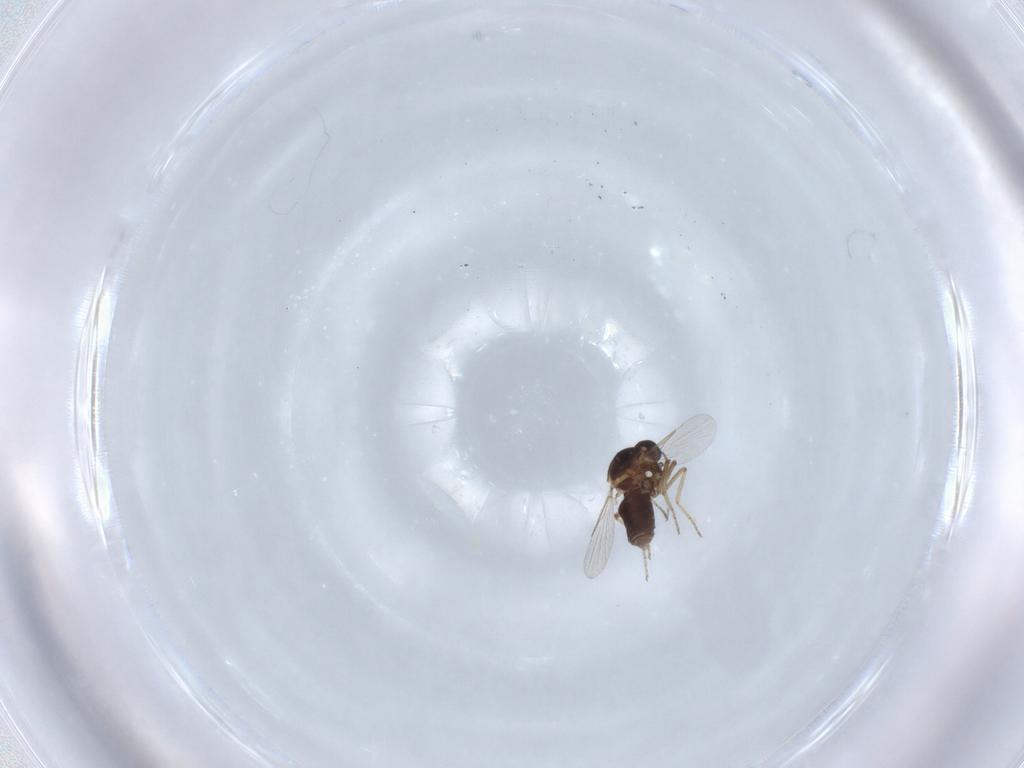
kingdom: Animalia
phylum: Arthropoda
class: Insecta
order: Diptera
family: Ceratopogonidae
